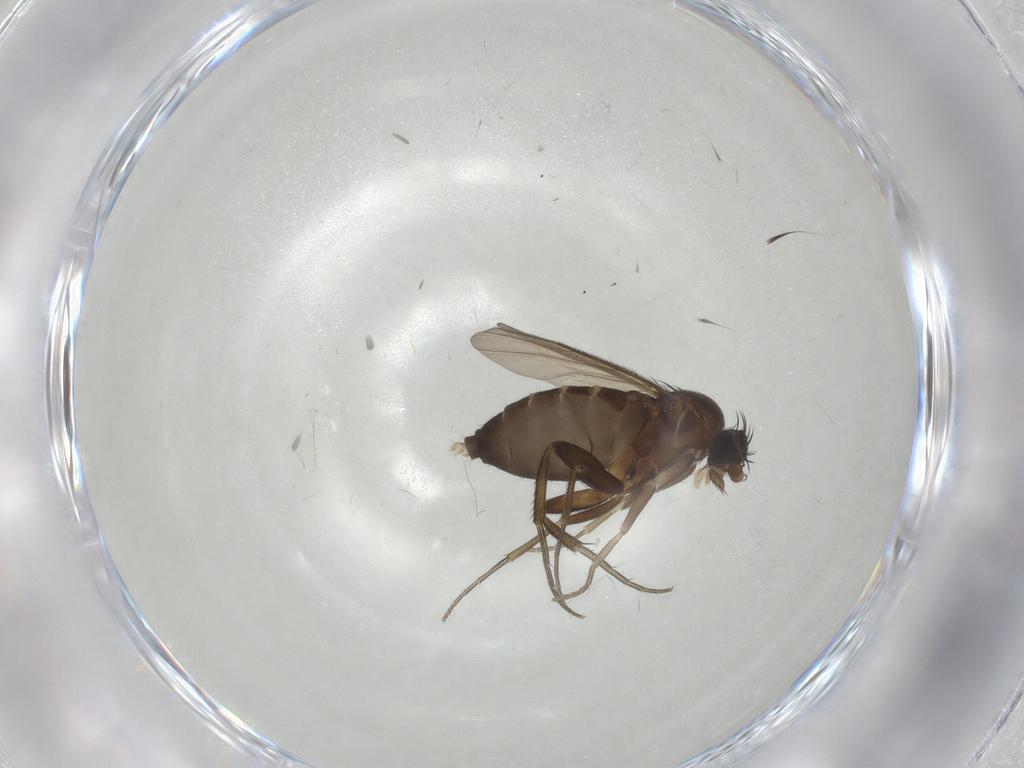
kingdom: Animalia
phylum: Arthropoda
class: Insecta
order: Diptera
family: Phoridae
